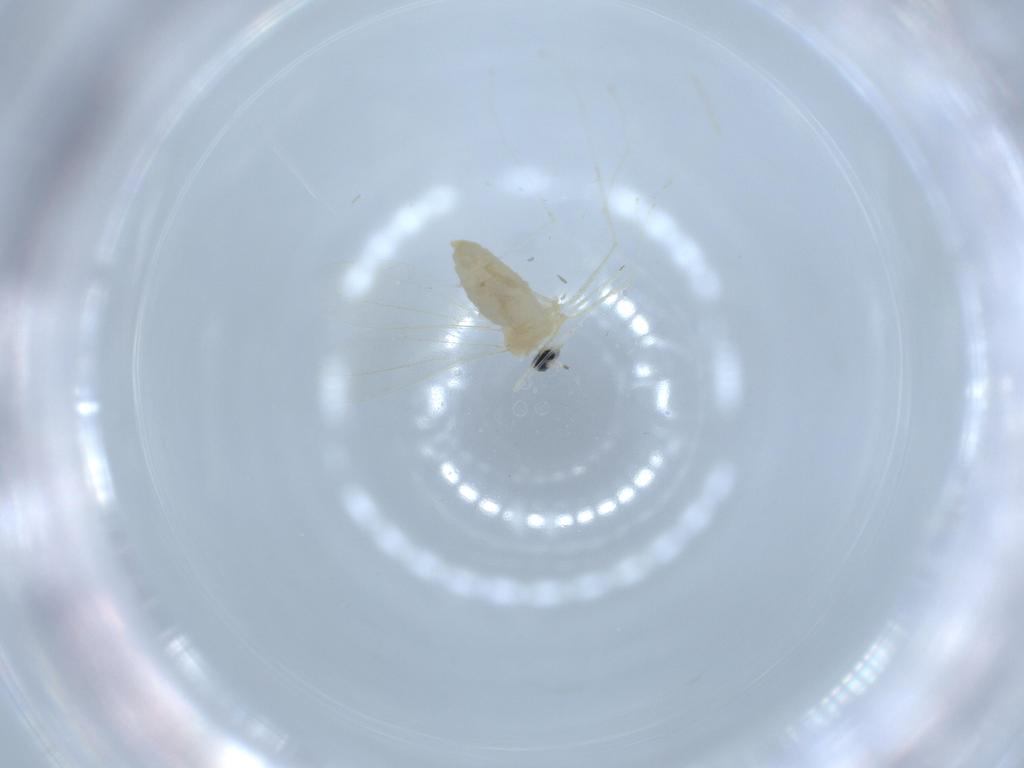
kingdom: Animalia
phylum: Arthropoda
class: Insecta
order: Diptera
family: Cecidomyiidae
